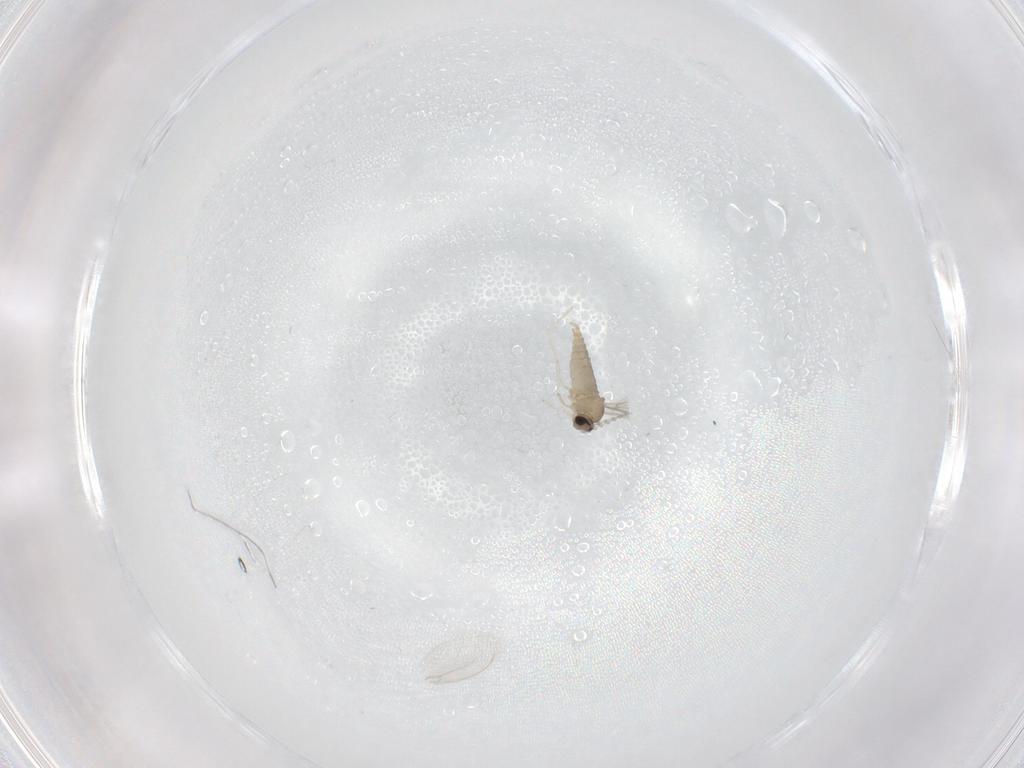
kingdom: Animalia
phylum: Arthropoda
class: Insecta
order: Diptera
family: Cecidomyiidae
